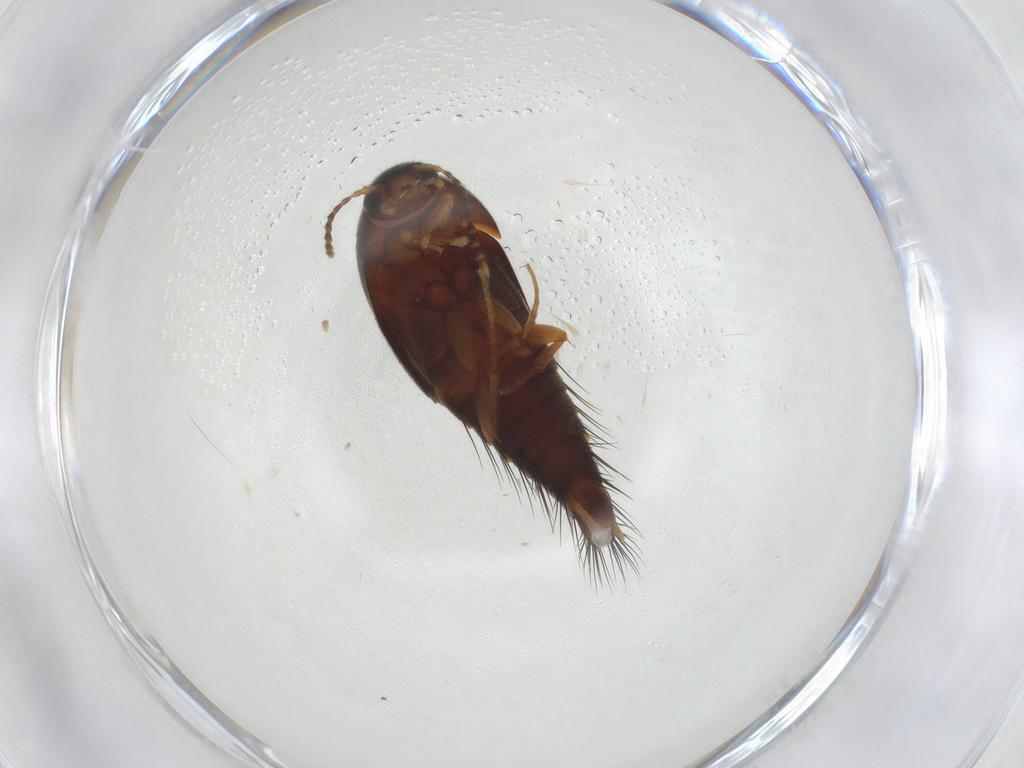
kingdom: Animalia
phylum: Arthropoda
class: Insecta
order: Coleoptera
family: Staphylinidae
